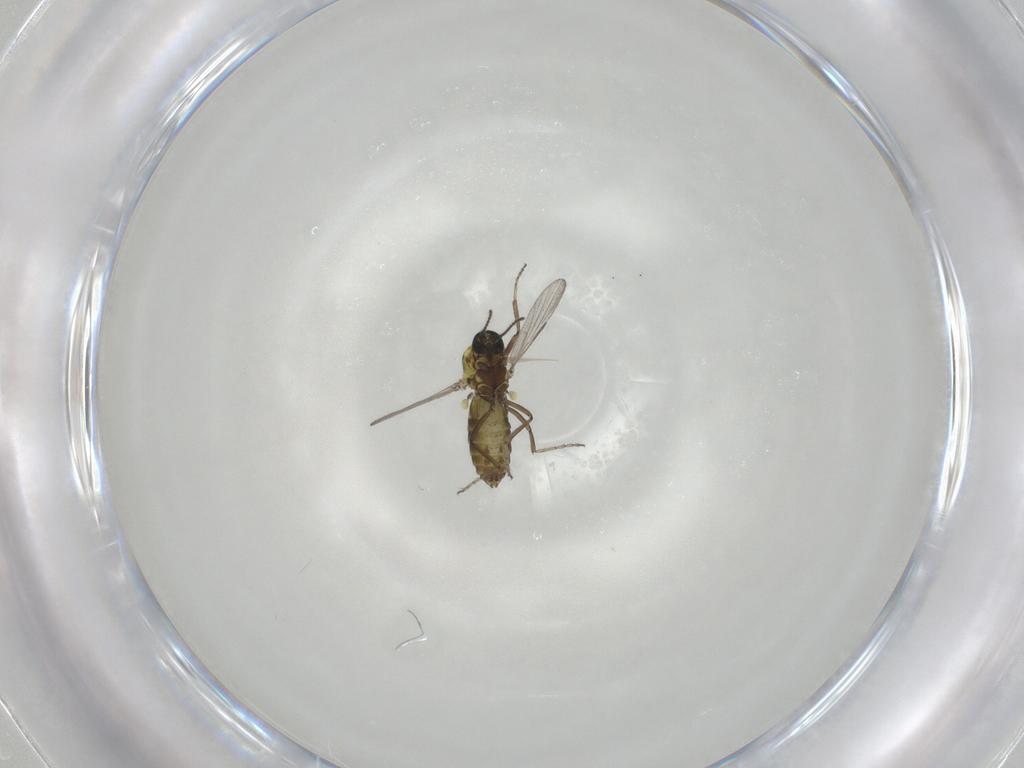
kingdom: Animalia
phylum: Arthropoda
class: Insecta
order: Diptera
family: Ceratopogonidae
